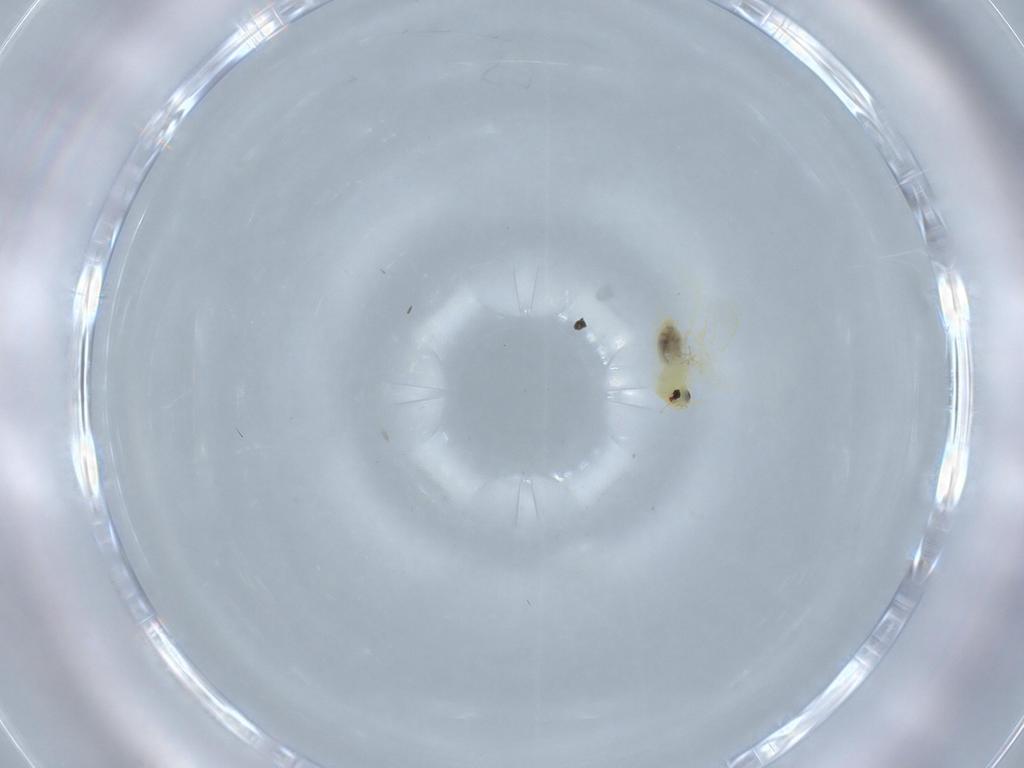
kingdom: Animalia
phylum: Arthropoda
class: Insecta
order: Hemiptera
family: Aleyrodidae
